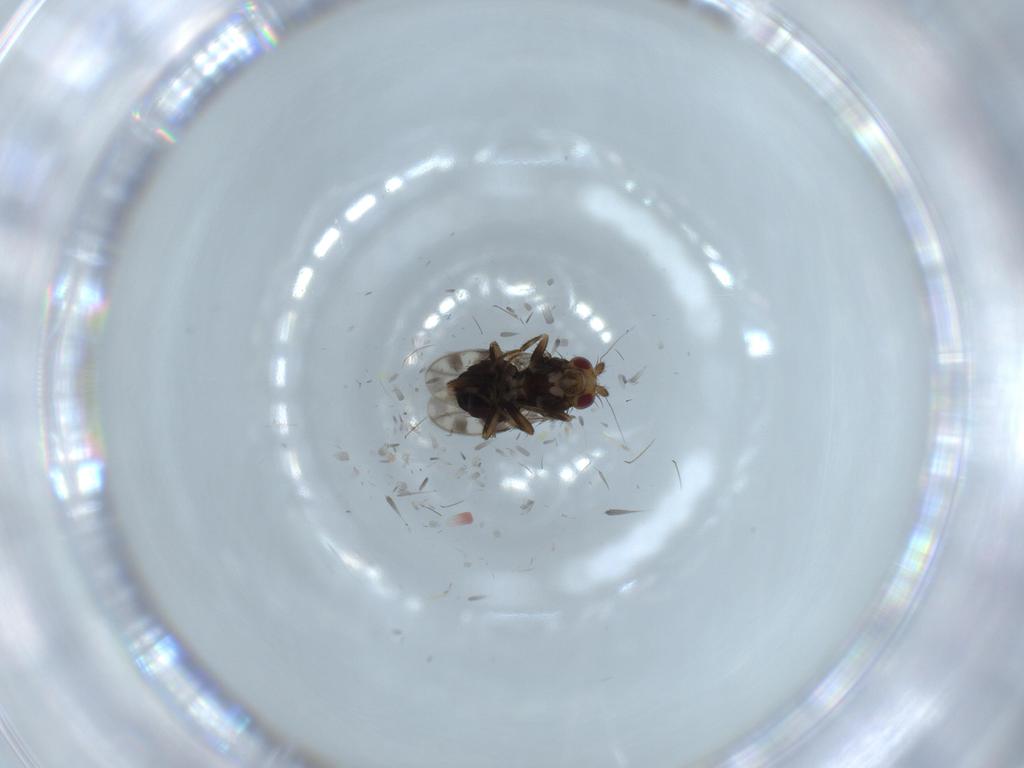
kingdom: Animalia
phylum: Arthropoda
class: Insecta
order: Diptera
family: Sphaeroceridae
